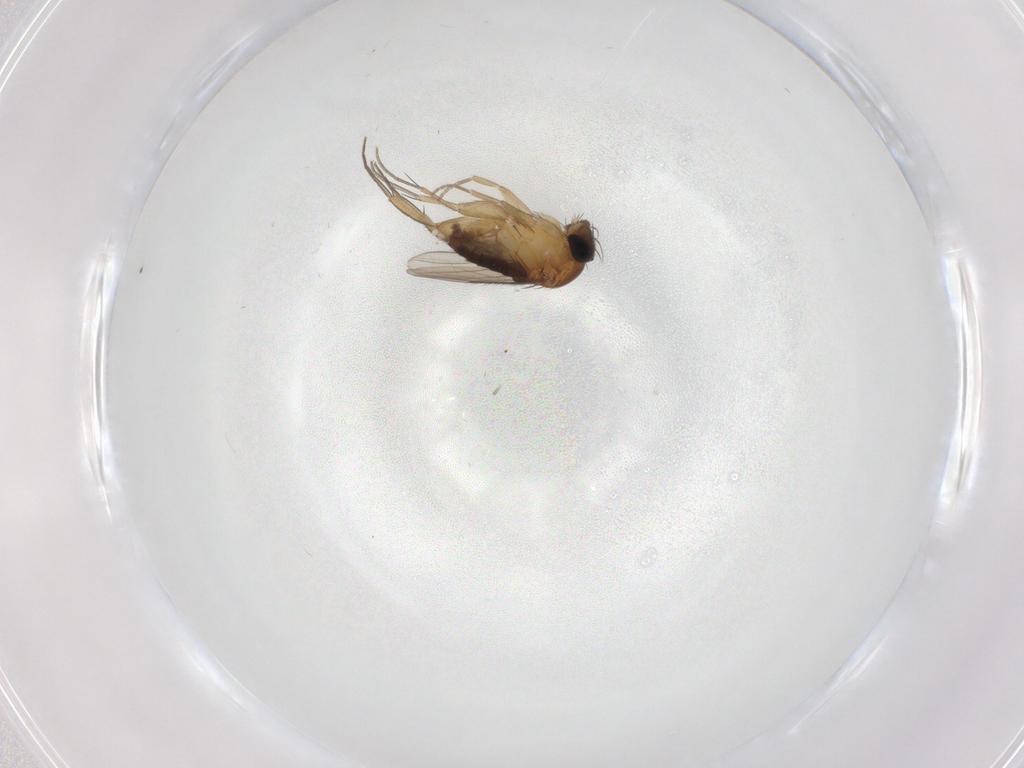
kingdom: Animalia
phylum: Arthropoda
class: Insecta
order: Diptera
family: Phoridae
